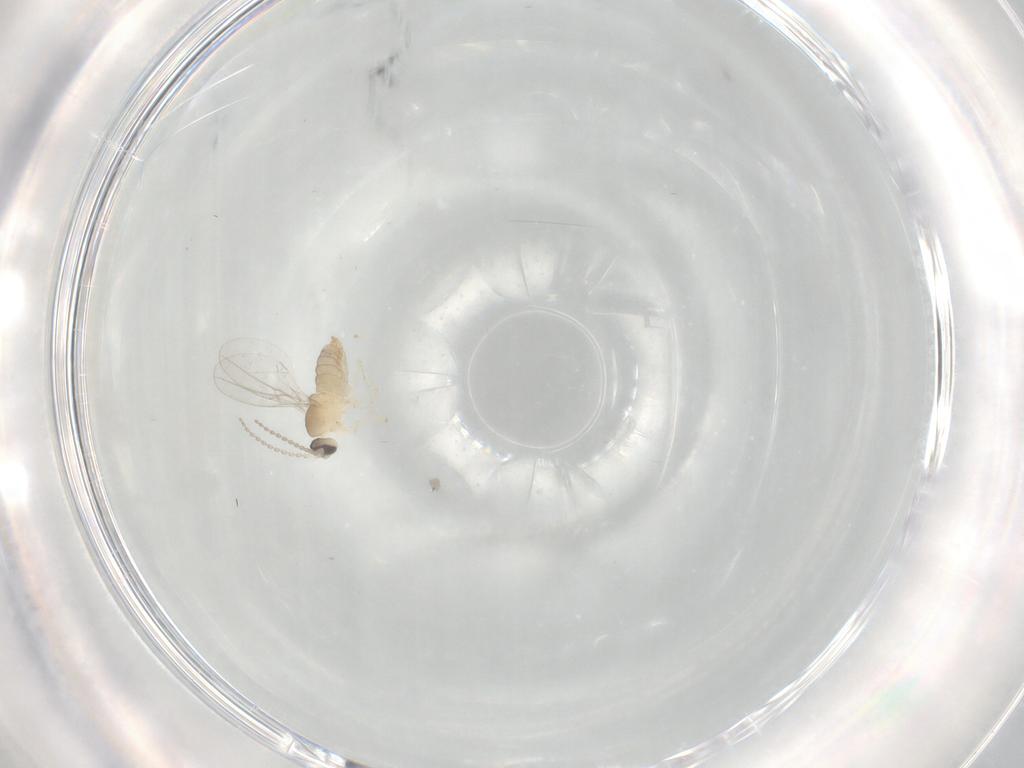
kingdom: Animalia
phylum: Arthropoda
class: Insecta
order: Diptera
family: Cecidomyiidae
